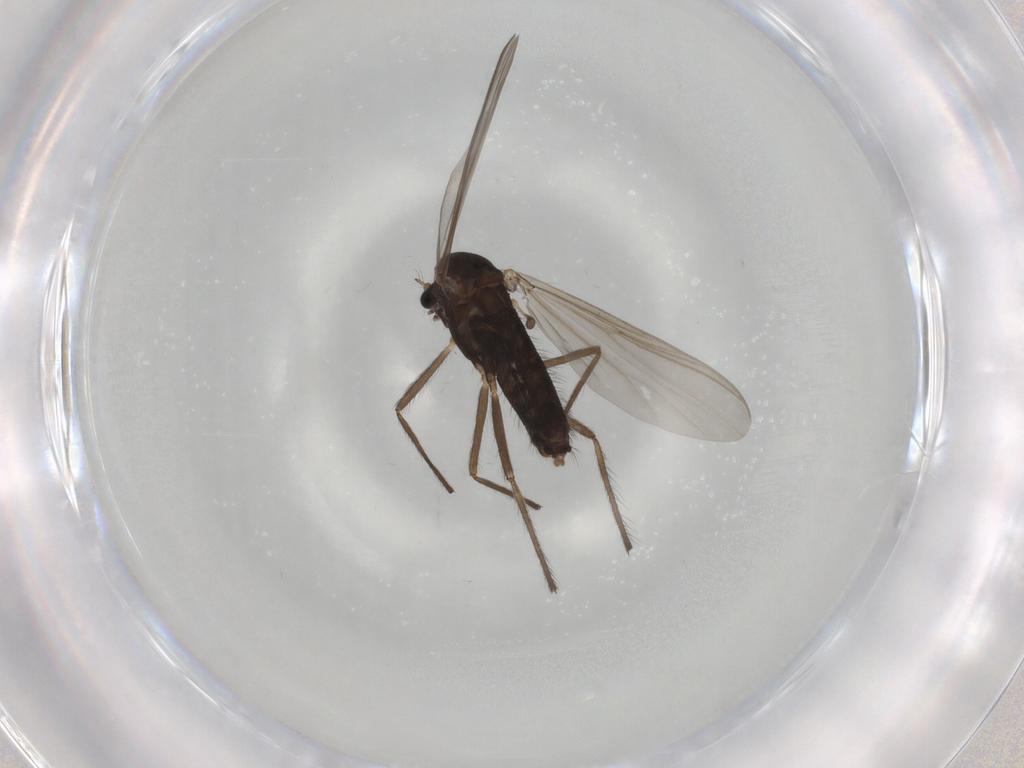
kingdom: Animalia
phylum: Arthropoda
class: Insecta
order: Diptera
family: Chironomidae
